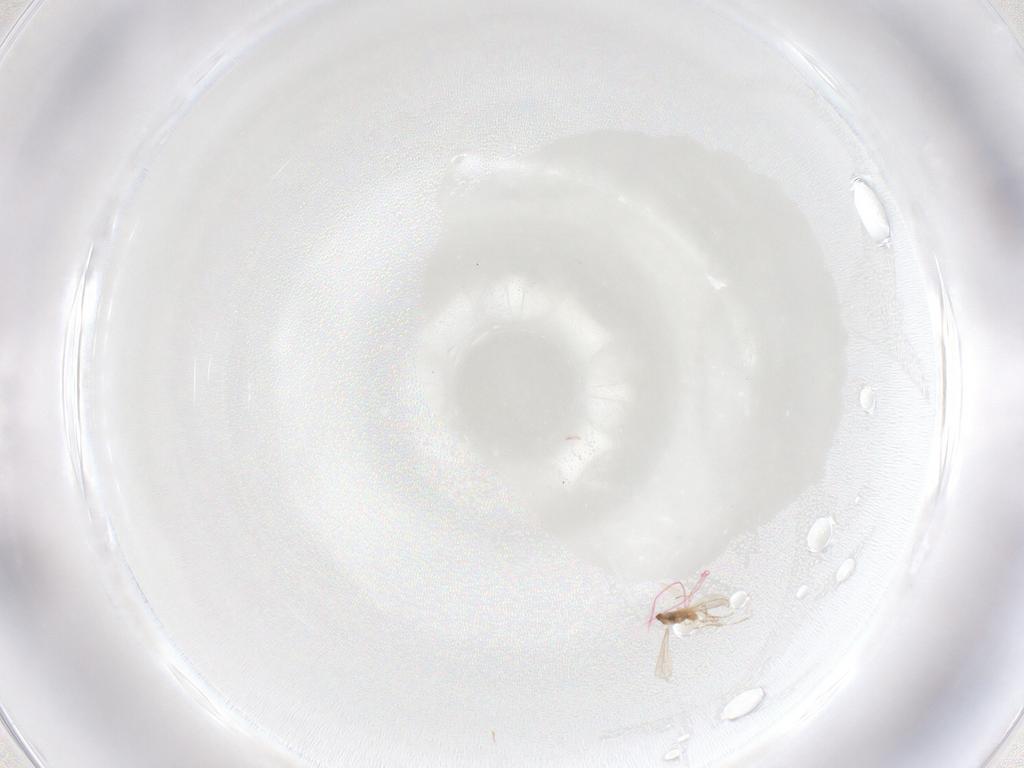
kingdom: Animalia
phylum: Arthropoda
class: Insecta
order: Diptera
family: Cecidomyiidae
